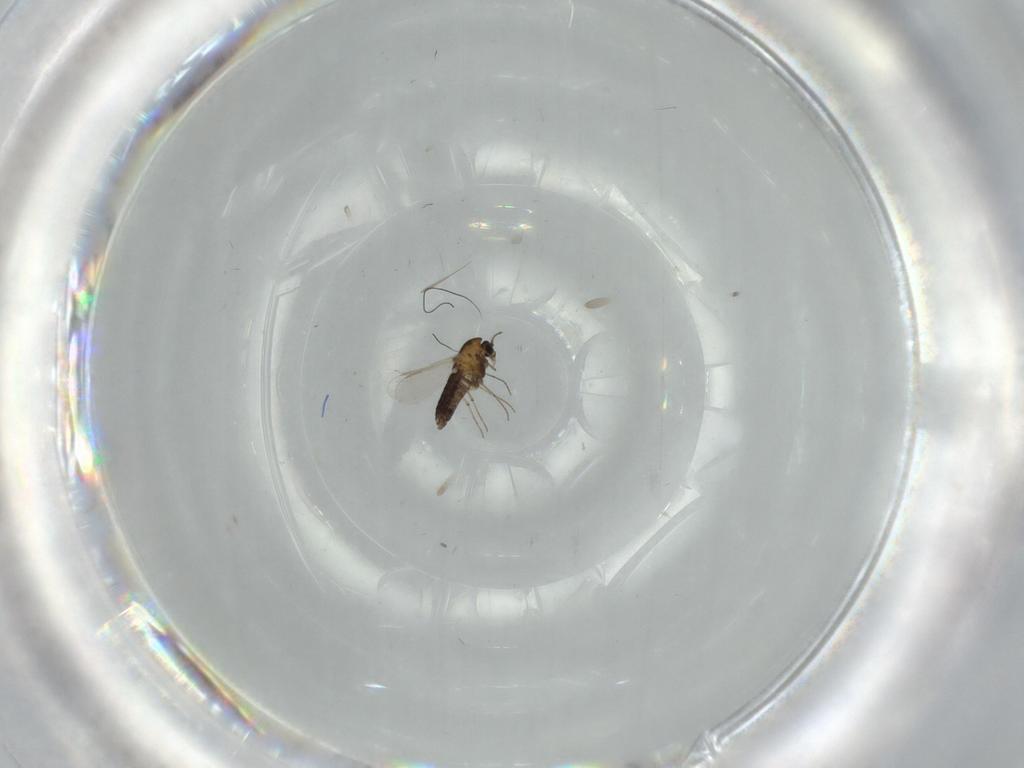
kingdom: Animalia
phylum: Arthropoda
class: Insecta
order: Diptera
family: Chironomidae
